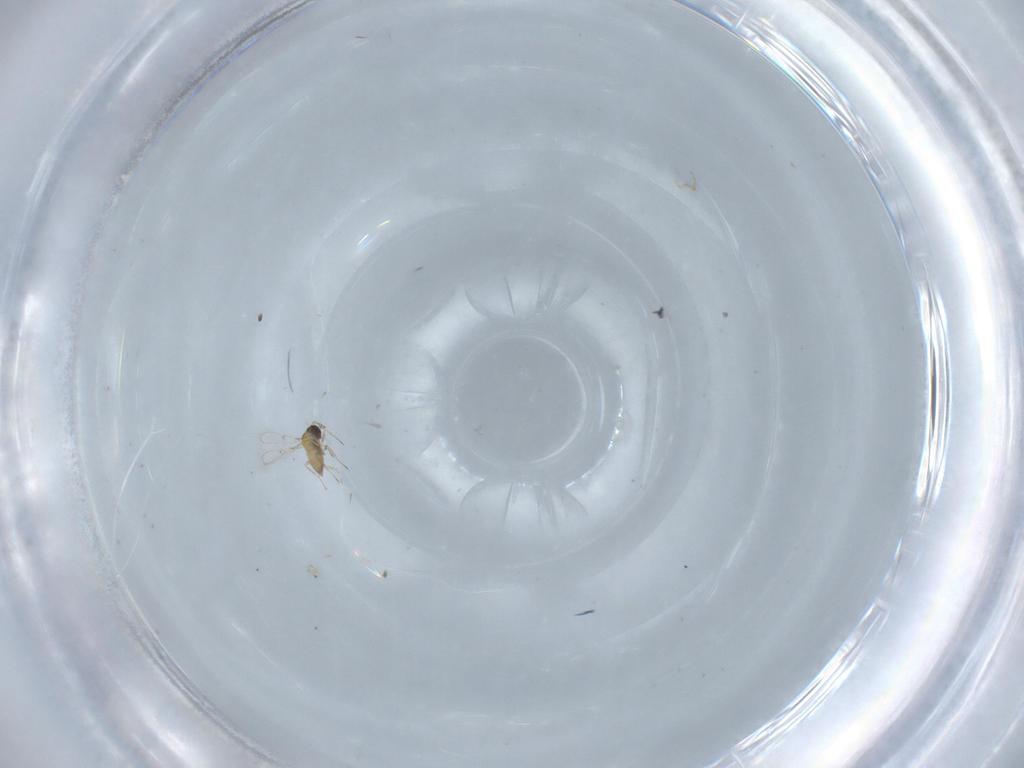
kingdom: Animalia
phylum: Arthropoda
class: Insecta
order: Hymenoptera
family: Trichogrammatidae
